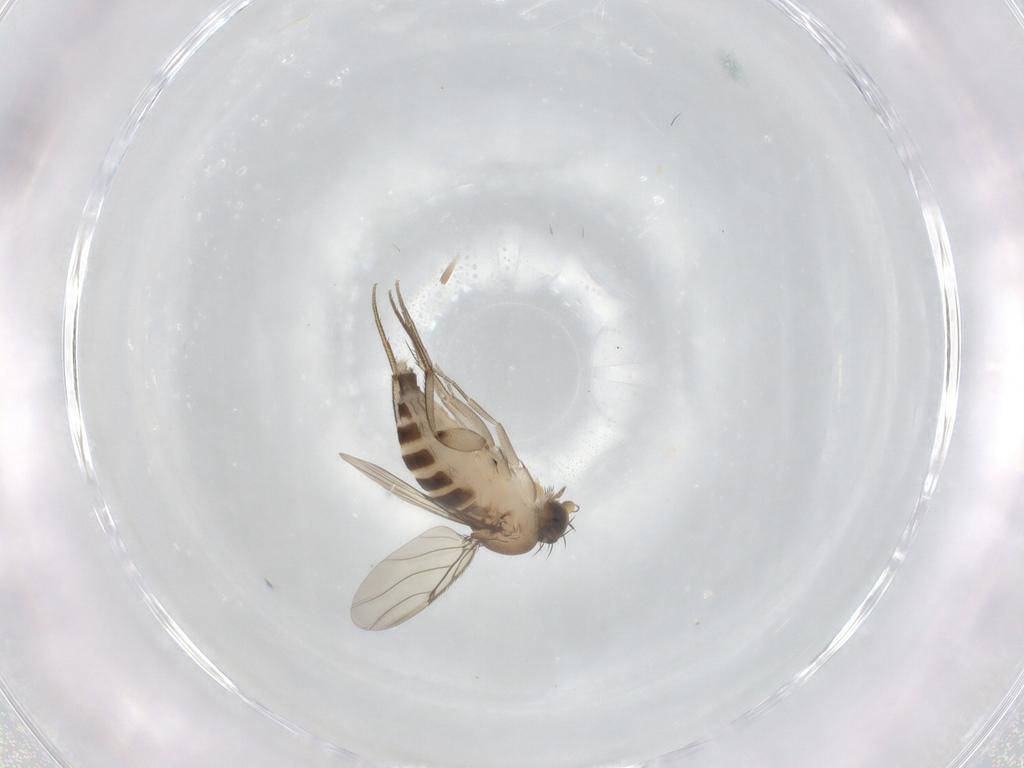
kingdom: Animalia
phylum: Arthropoda
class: Insecta
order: Diptera
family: Phoridae
